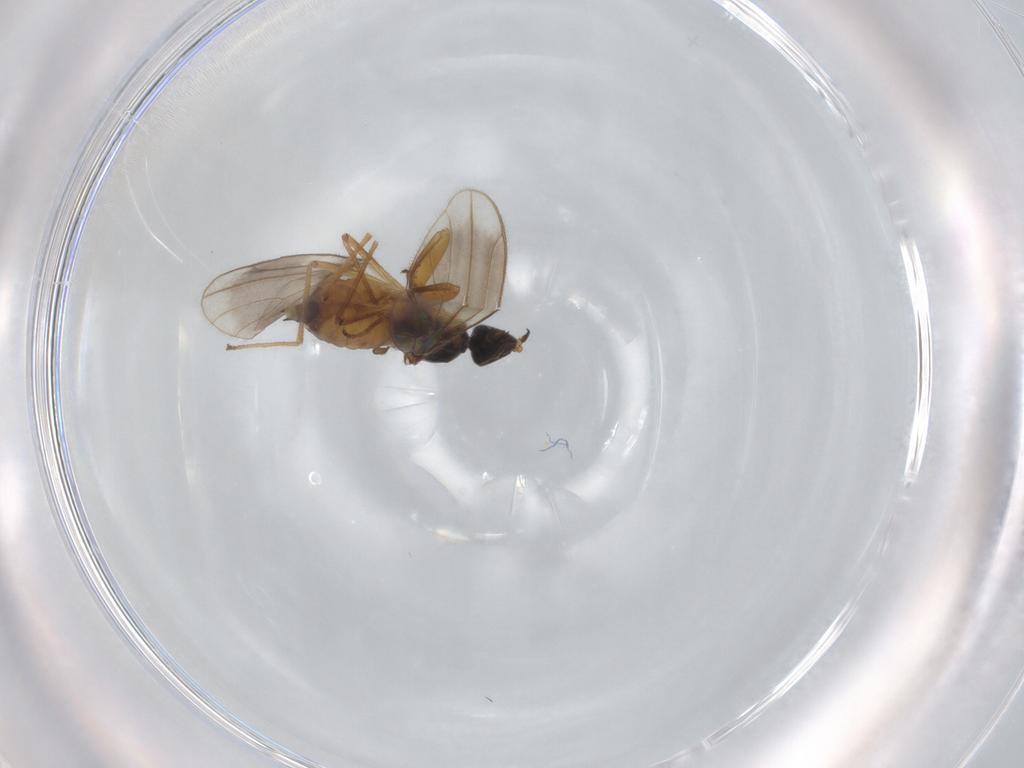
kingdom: Animalia
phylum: Arthropoda
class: Insecta
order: Diptera
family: Empididae
